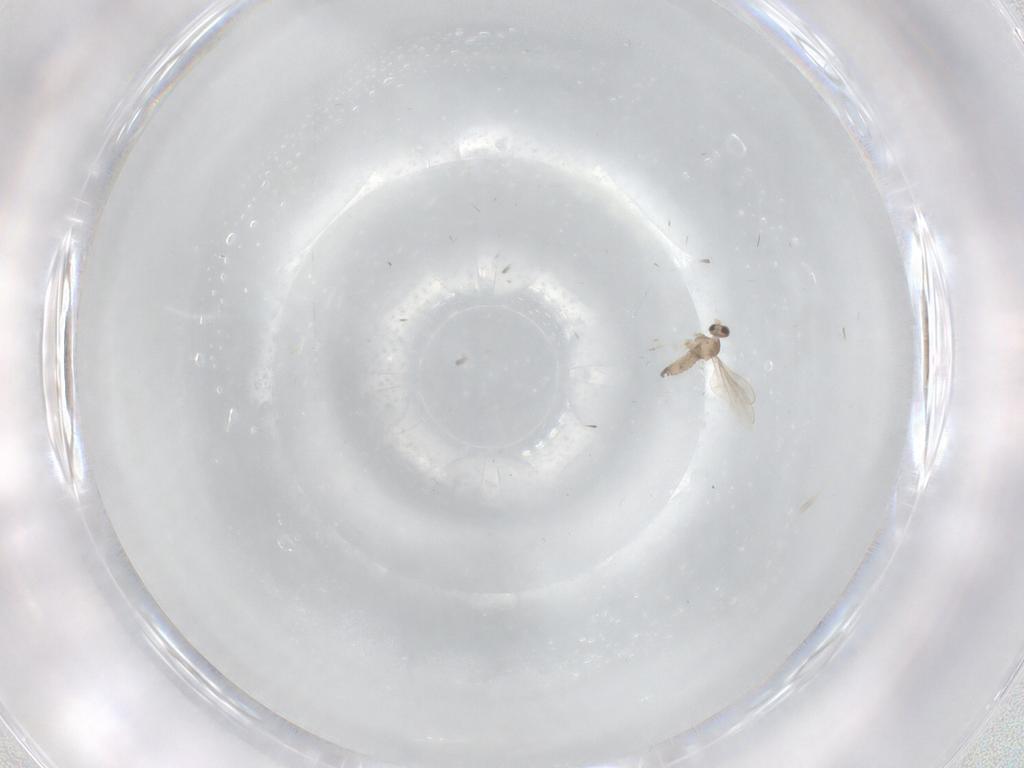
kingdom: Animalia
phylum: Arthropoda
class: Insecta
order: Diptera
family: Cecidomyiidae
